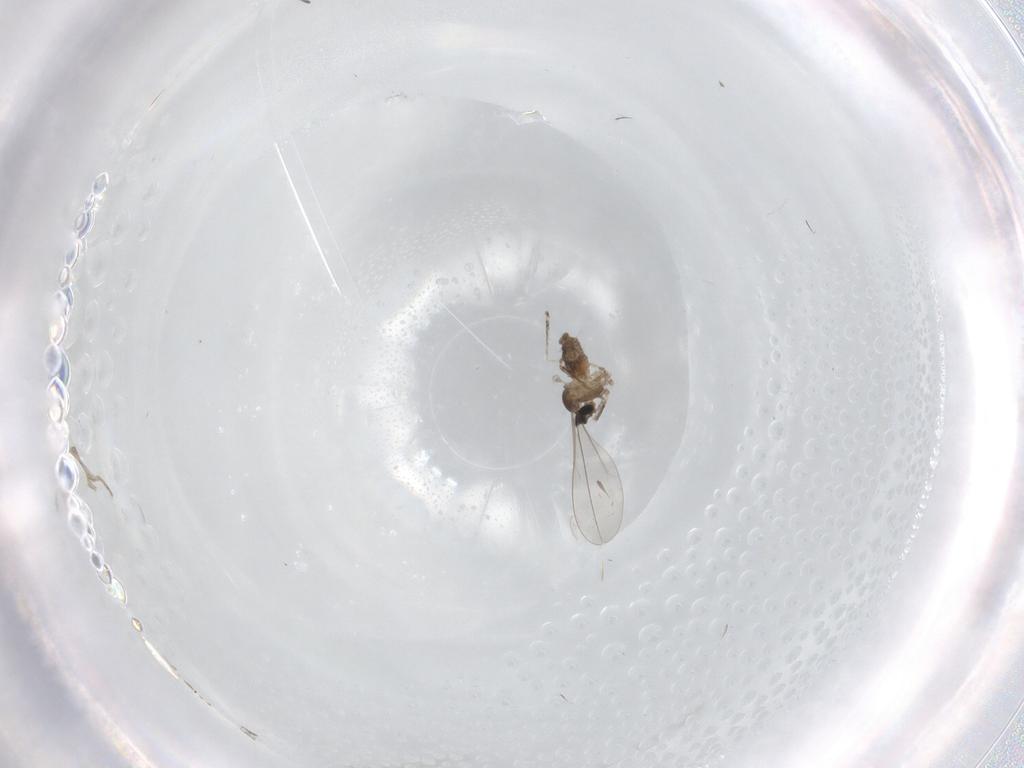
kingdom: Animalia
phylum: Arthropoda
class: Insecta
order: Diptera
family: Cecidomyiidae
